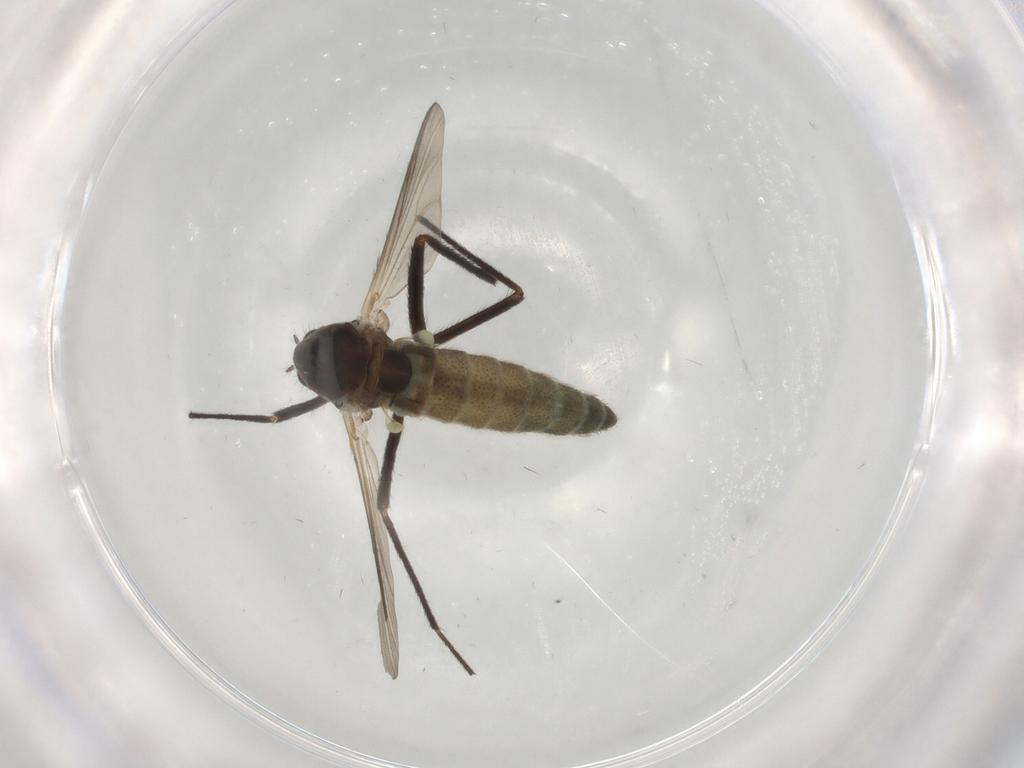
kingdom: Animalia
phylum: Arthropoda
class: Insecta
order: Diptera
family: Chironomidae
